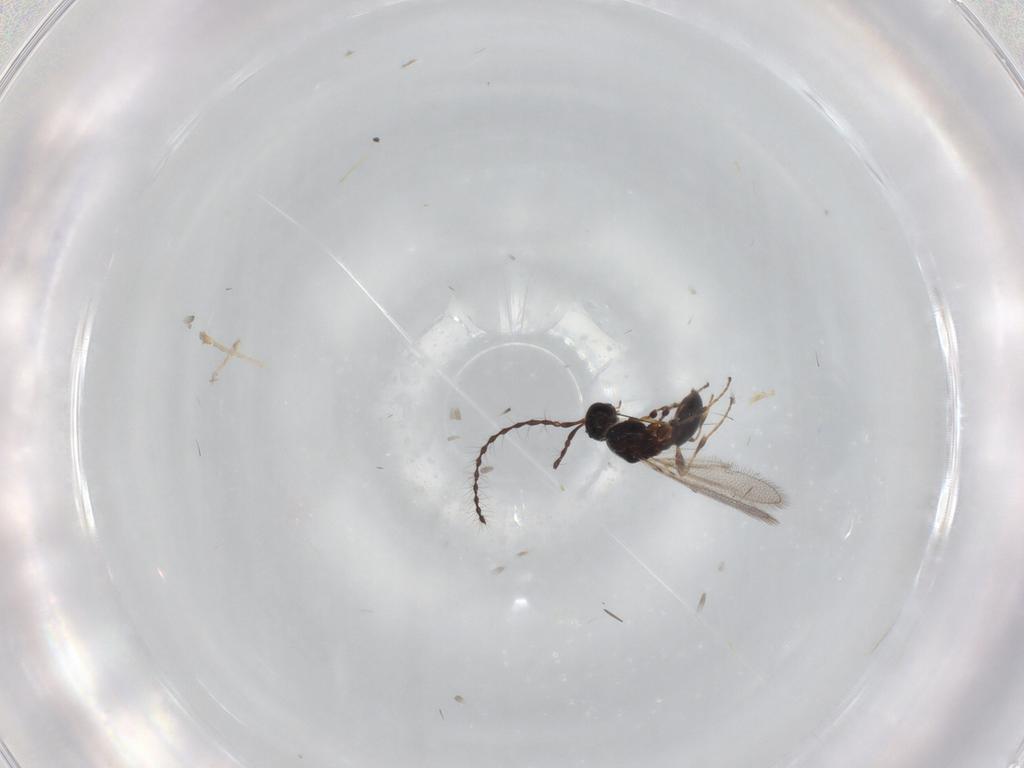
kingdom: Animalia
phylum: Arthropoda
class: Insecta
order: Hymenoptera
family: Diapriidae
